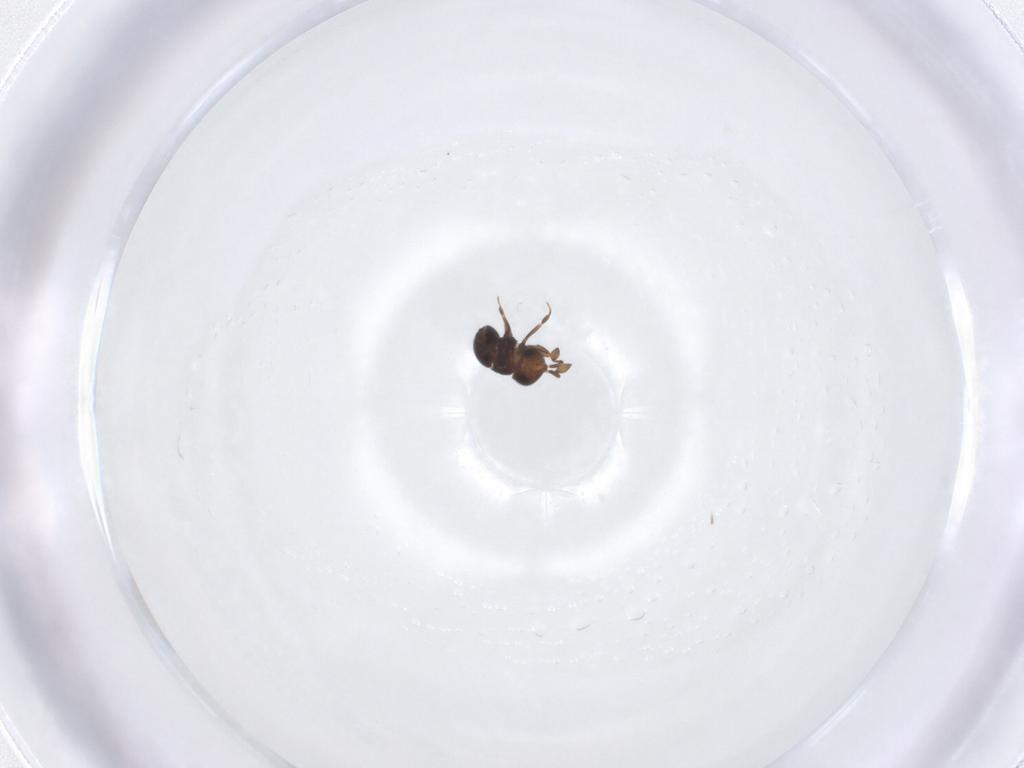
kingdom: Animalia
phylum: Arthropoda
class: Insecta
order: Hymenoptera
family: Scelionidae
